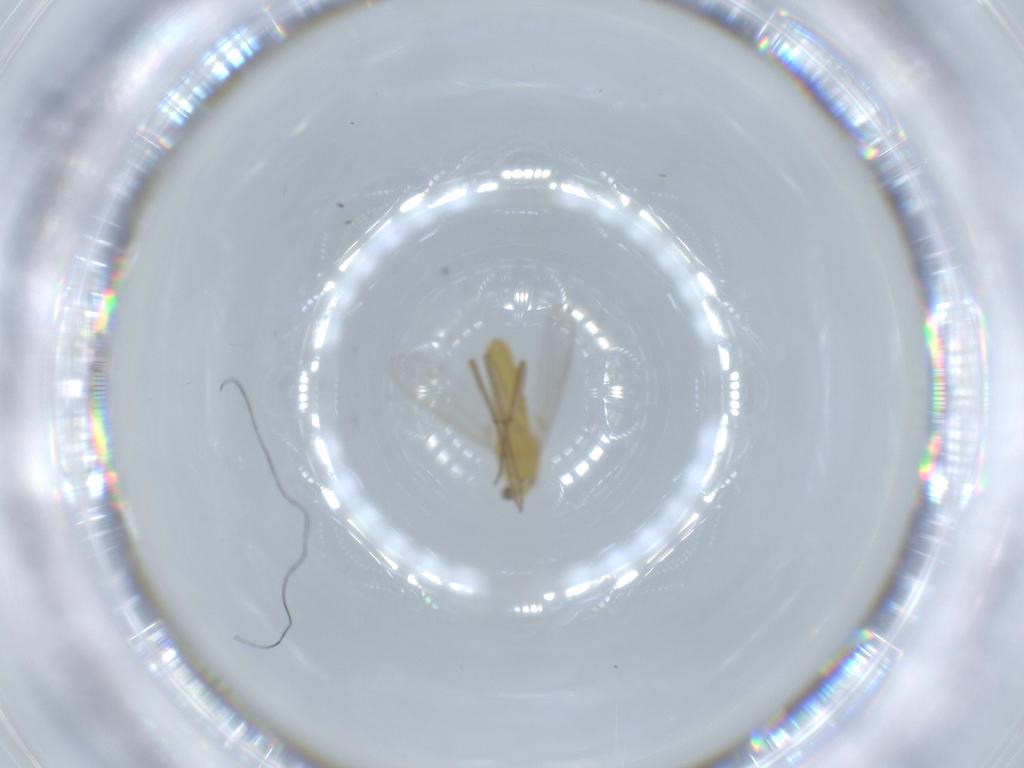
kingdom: Animalia
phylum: Arthropoda
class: Insecta
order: Diptera
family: Chironomidae
